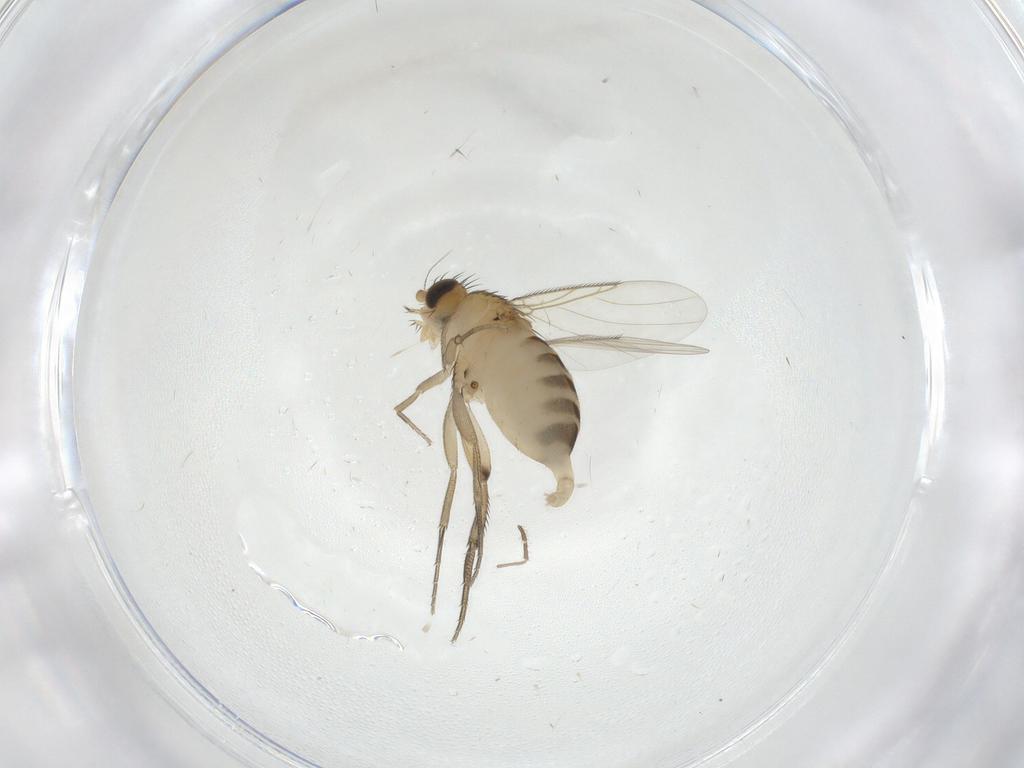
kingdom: Animalia
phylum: Arthropoda
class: Insecta
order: Diptera
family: Phoridae
